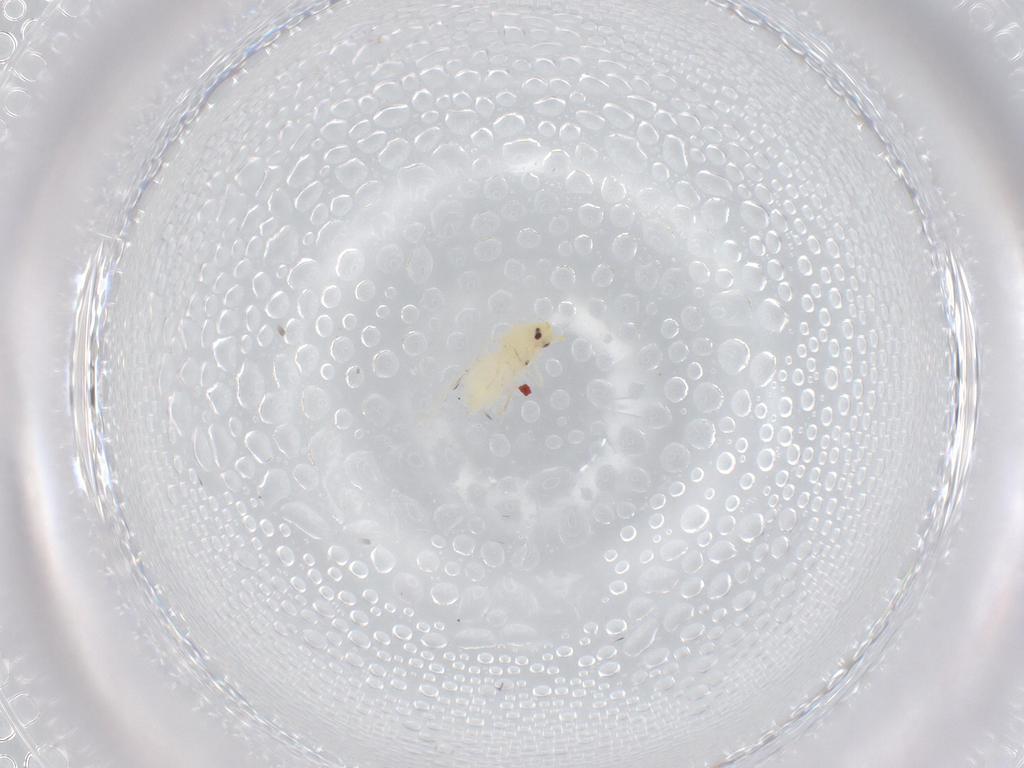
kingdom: Animalia
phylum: Arthropoda
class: Insecta
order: Hemiptera
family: Aleyrodidae
